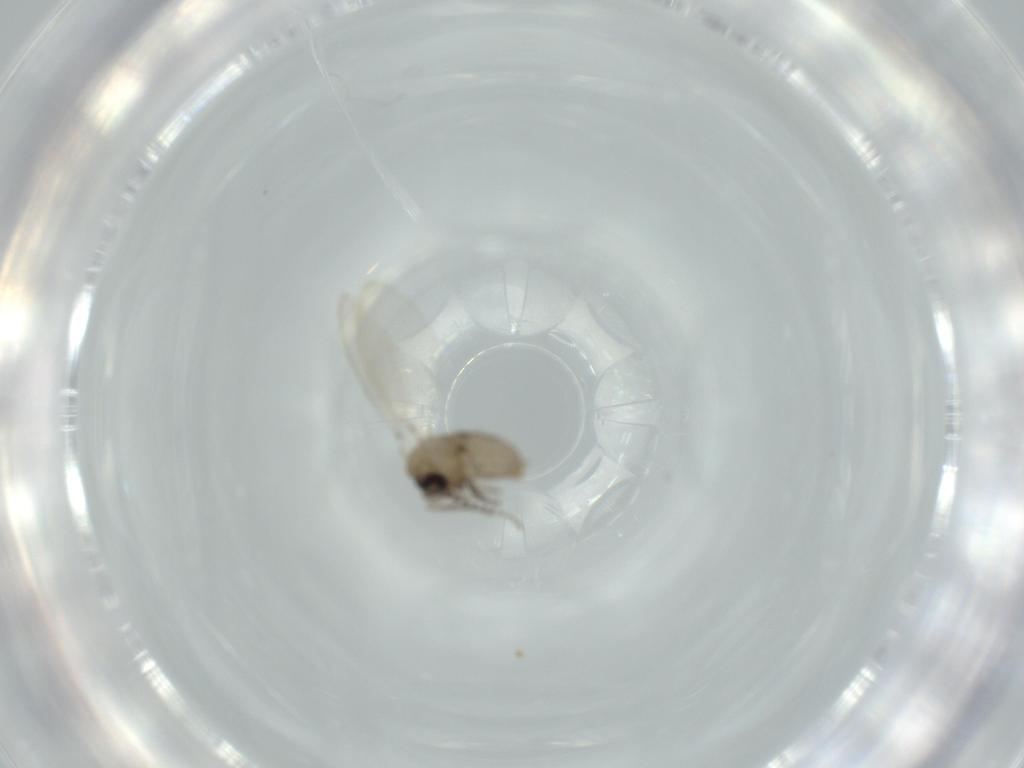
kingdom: Animalia
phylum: Arthropoda
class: Insecta
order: Diptera
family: Psychodidae
